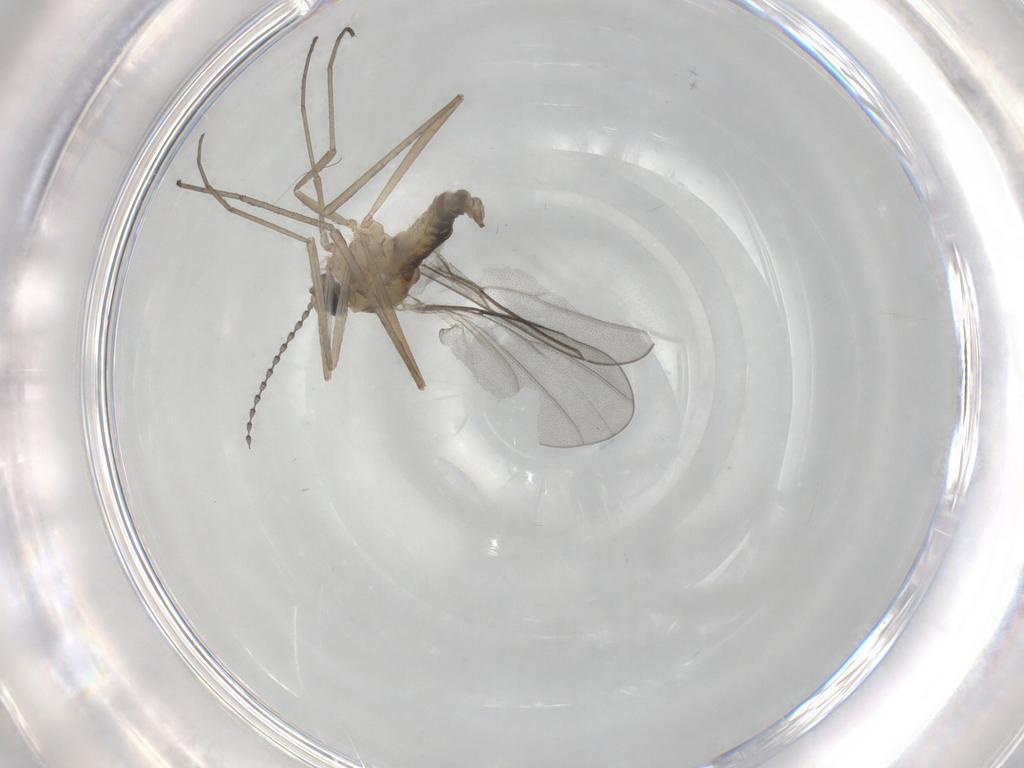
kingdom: Animalia
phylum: Arthropoda
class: Insecta
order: Diptera
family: Cecidomyiidae
